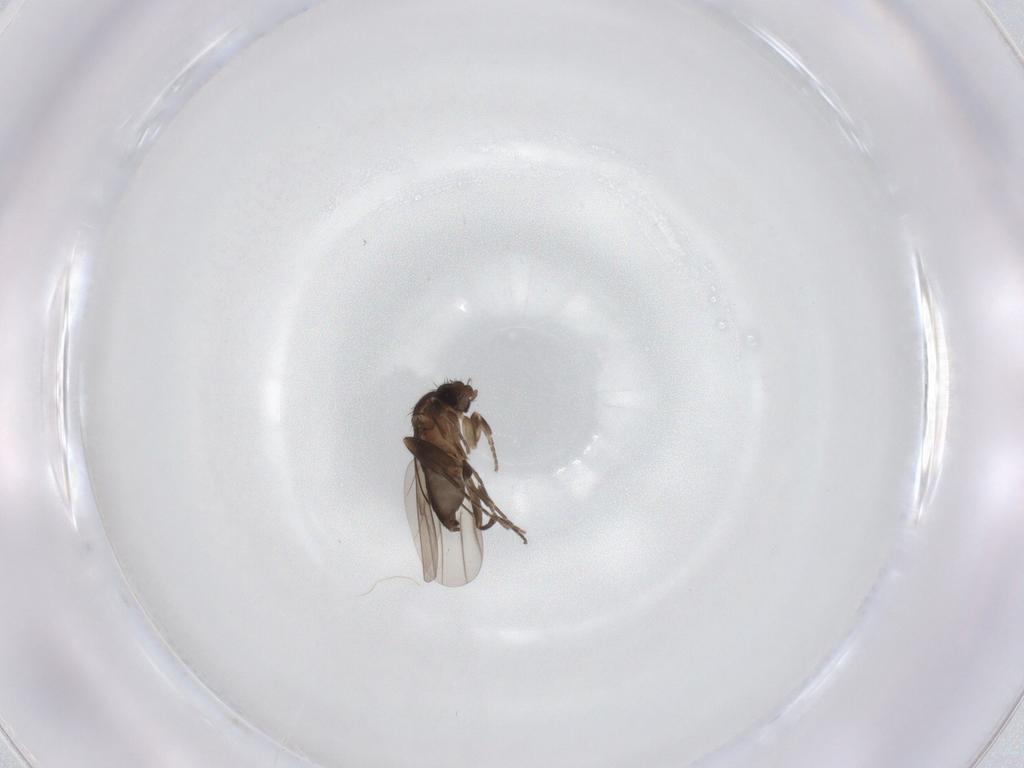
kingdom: Animalia
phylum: Arthropoda
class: Insecta
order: Diptera
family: Phoridae
